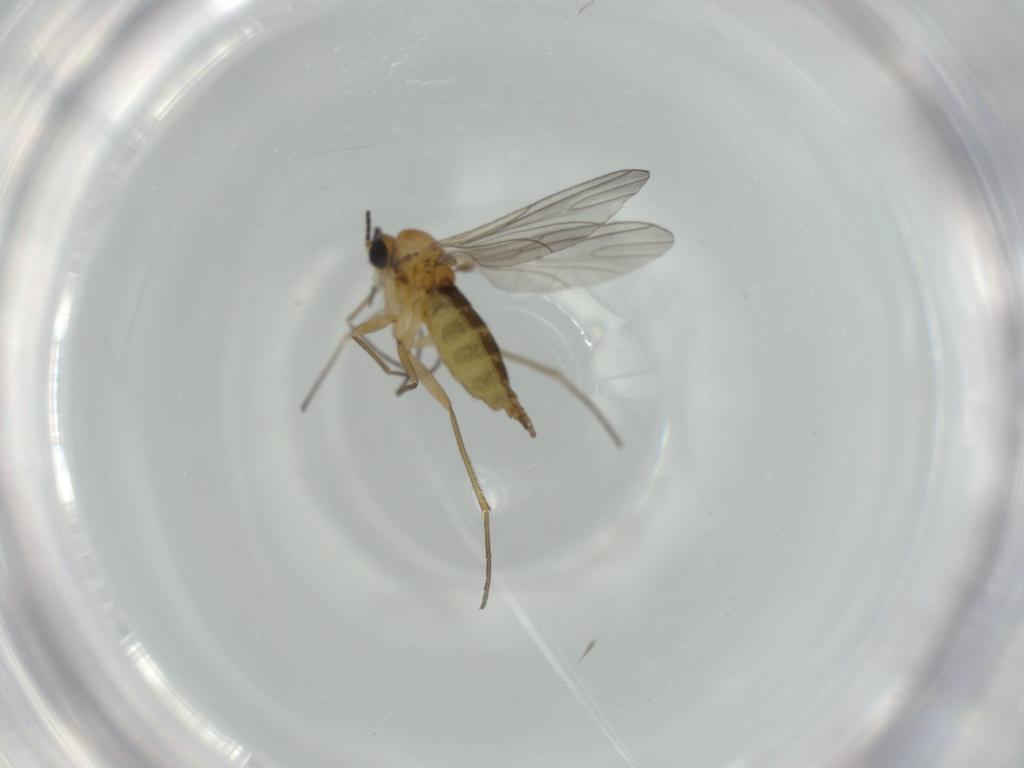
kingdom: Animalia
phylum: Arthropoda
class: Insecta
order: Diptera
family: Sciaridae
